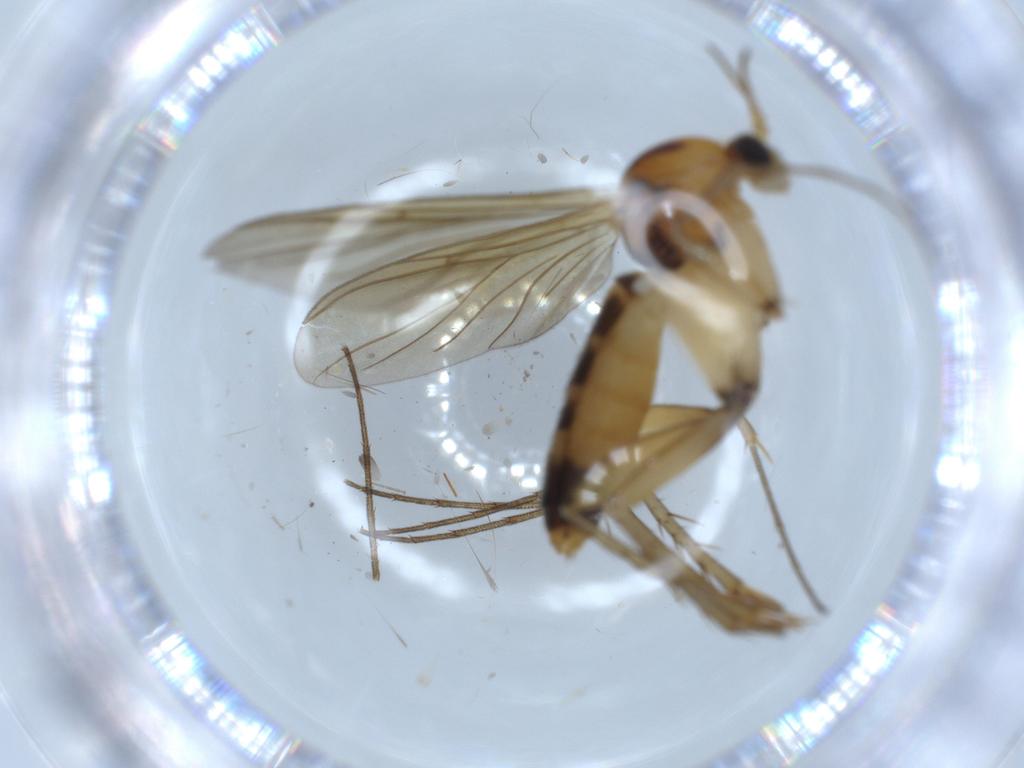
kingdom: Animalia
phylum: Arthropoda
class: Insecta
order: Diptera
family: Mycetophilidae
